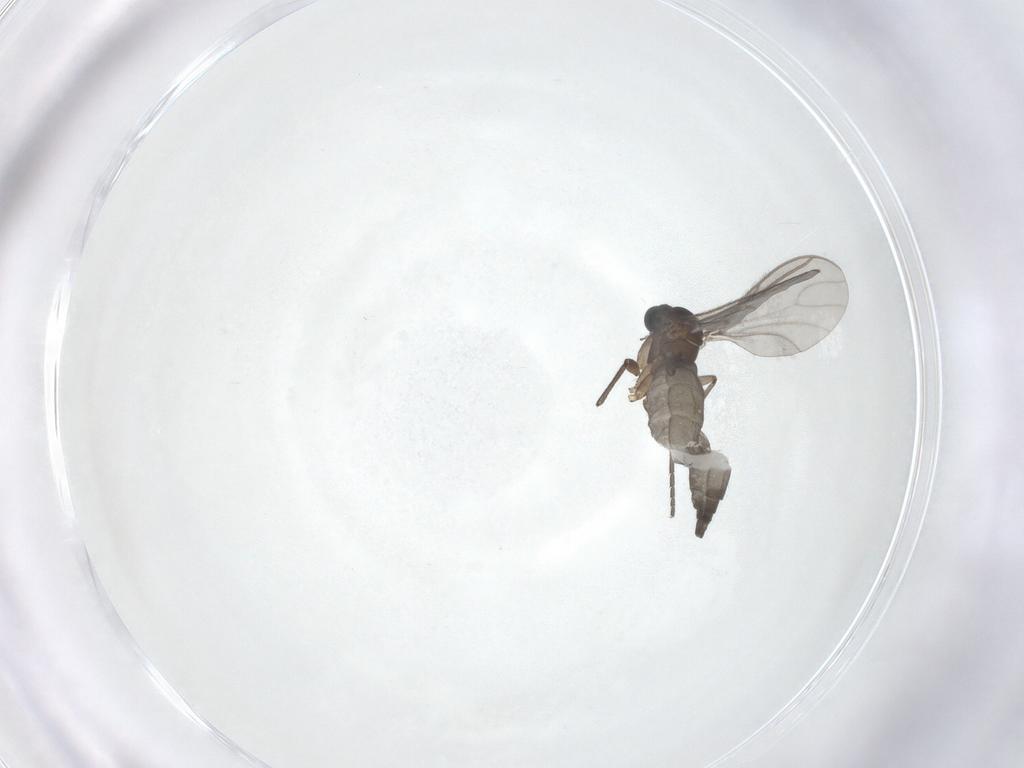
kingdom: Animalia
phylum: Arthropoda
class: Insecta
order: Diptera
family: Sciaridae
